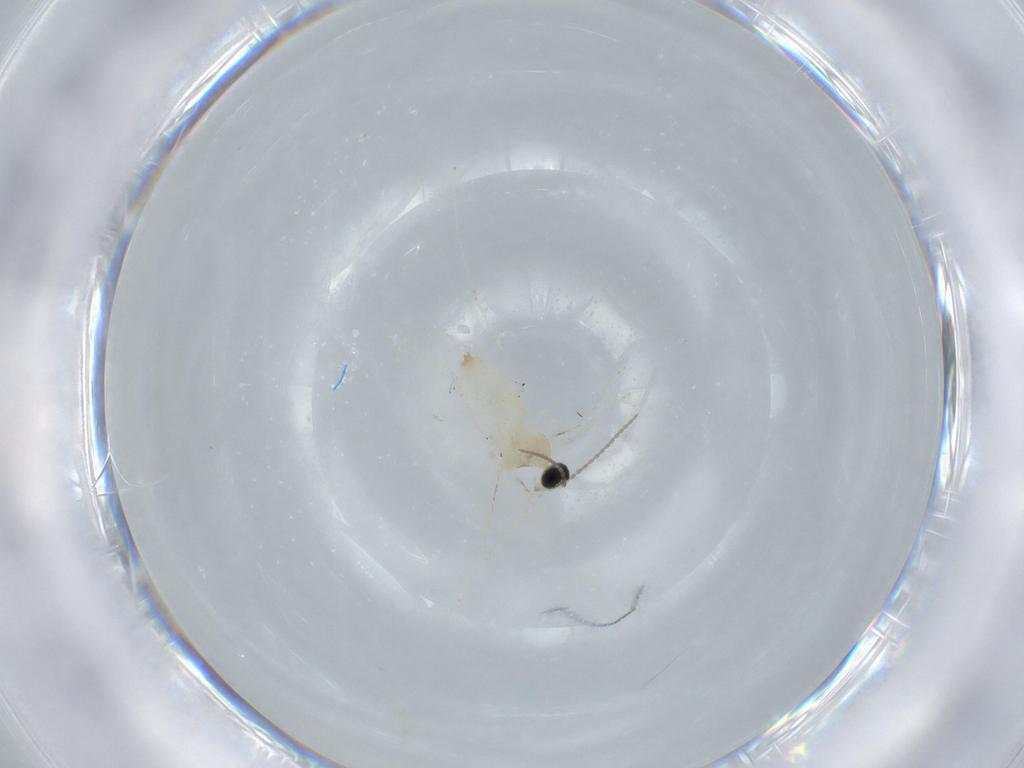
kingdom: Animalia
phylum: Arthropoda
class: Insecta
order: Diptera
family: Cecidomyiidae
